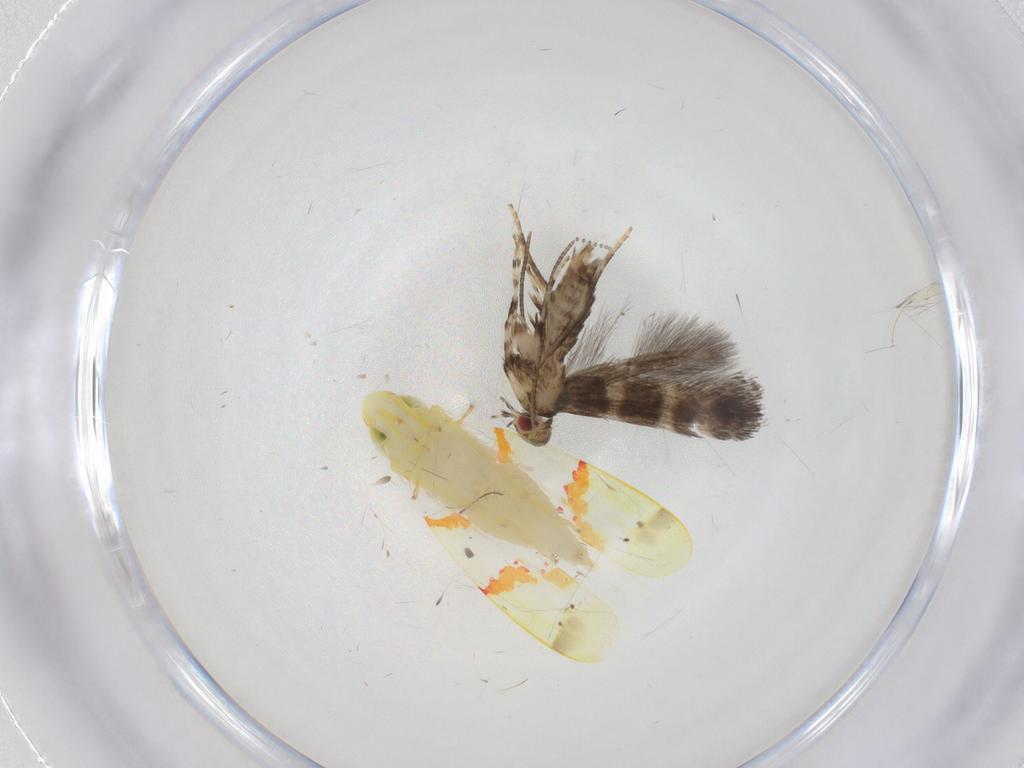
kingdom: Animalia
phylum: Arthropoda
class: Insecta
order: Lepidoptera
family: Gracillariidae
